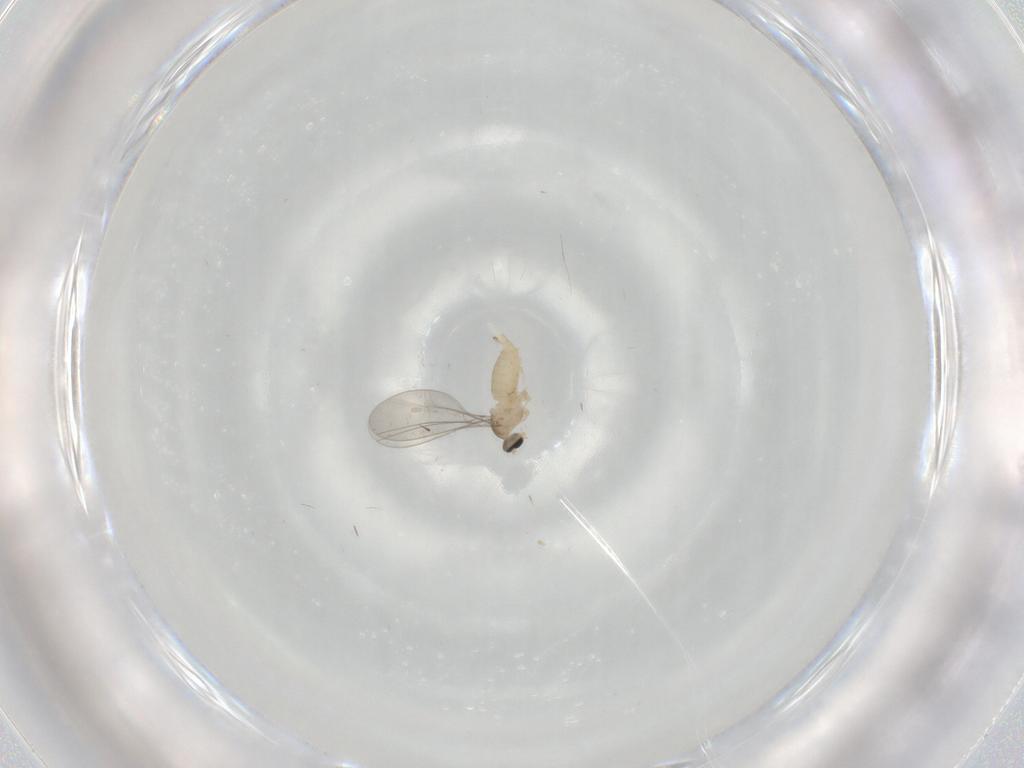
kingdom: Animalia
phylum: Arthropoda
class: Insecta
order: Diptera
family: Cecidomyiidae
